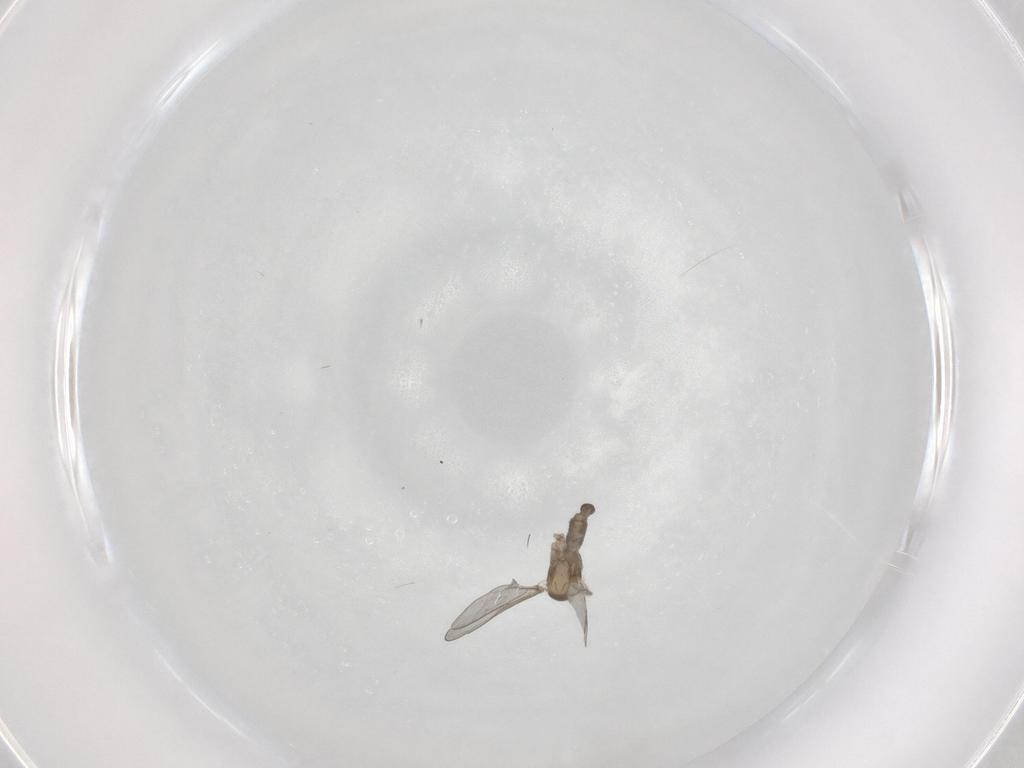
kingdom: Animalia
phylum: Arthropoda
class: Insecta
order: Diptera
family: Cecidomyiidae
